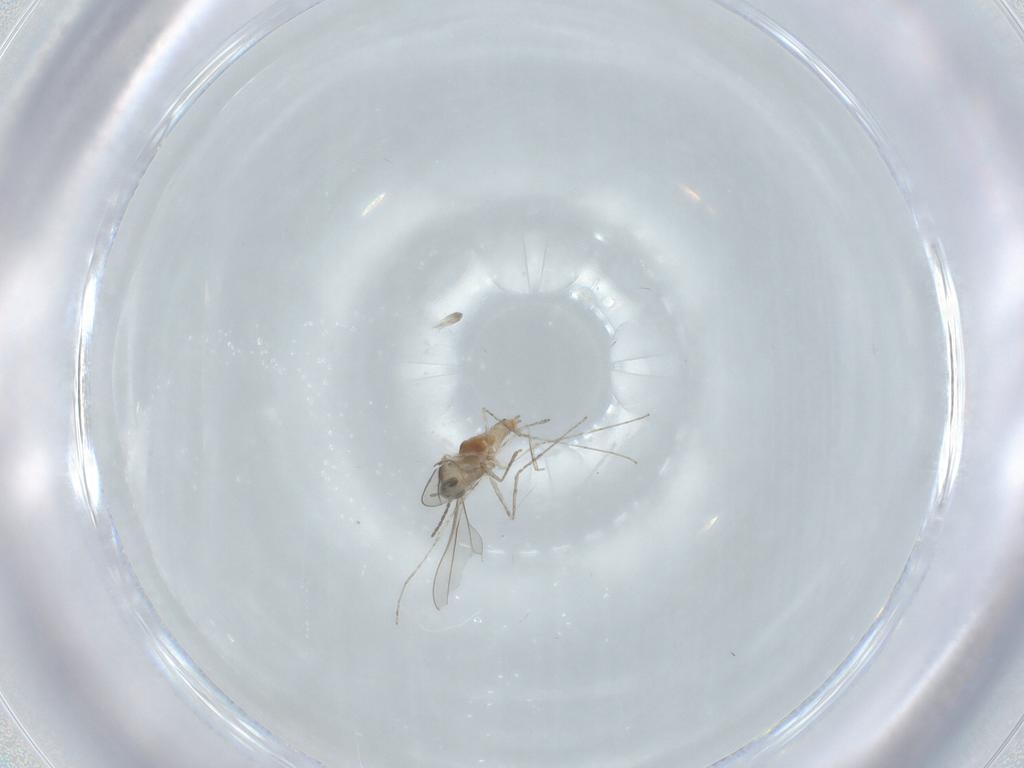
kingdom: Animalia
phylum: Arthropoda
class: Insecta
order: Diptera
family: Cecidomyiidae
